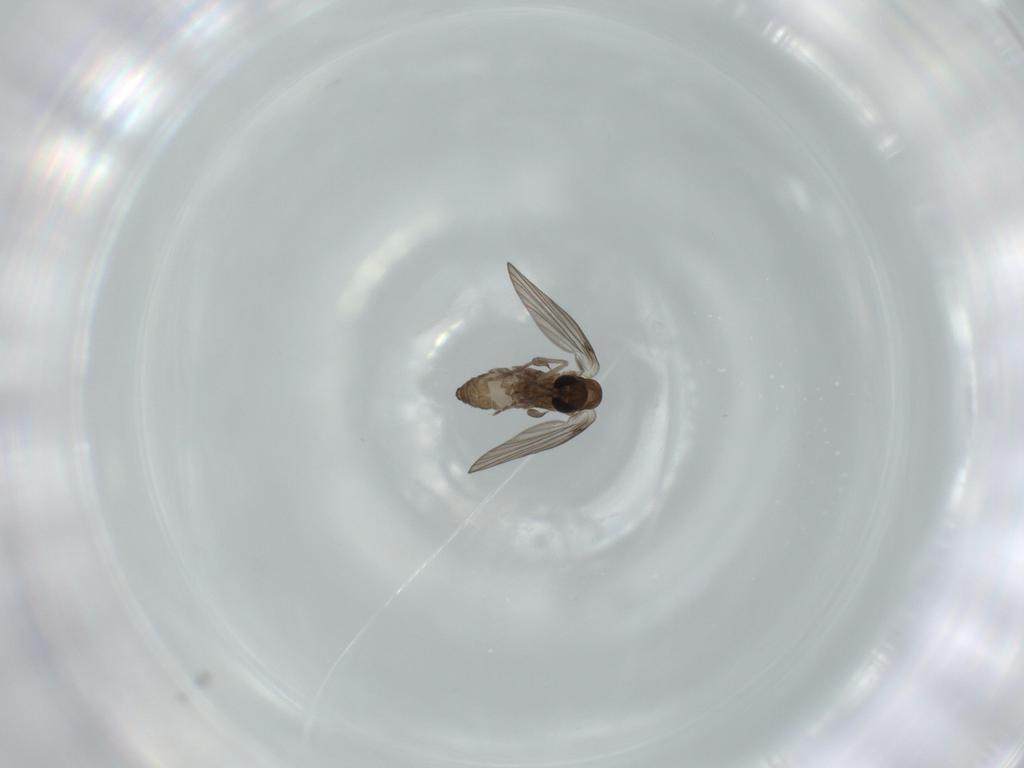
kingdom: Animalia
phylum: Arthropoda
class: Insecta
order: Diptera
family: Psychodidae
